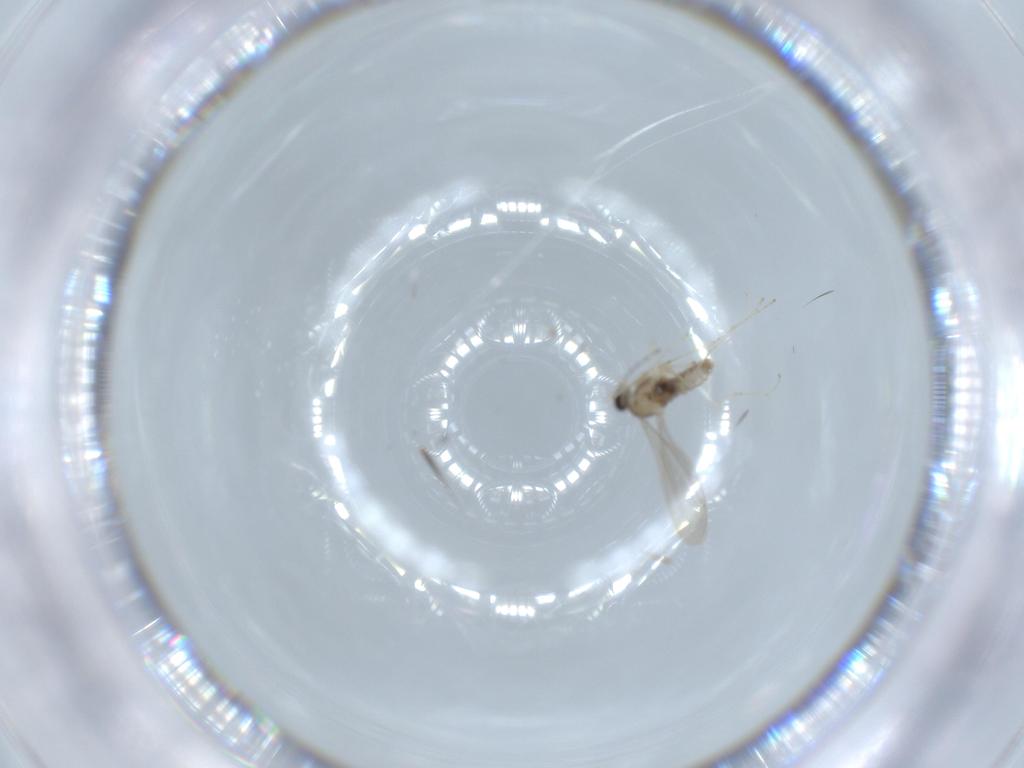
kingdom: Animalia
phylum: Arthropoda
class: Insecta
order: Diptera
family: Cecidomyiidae
